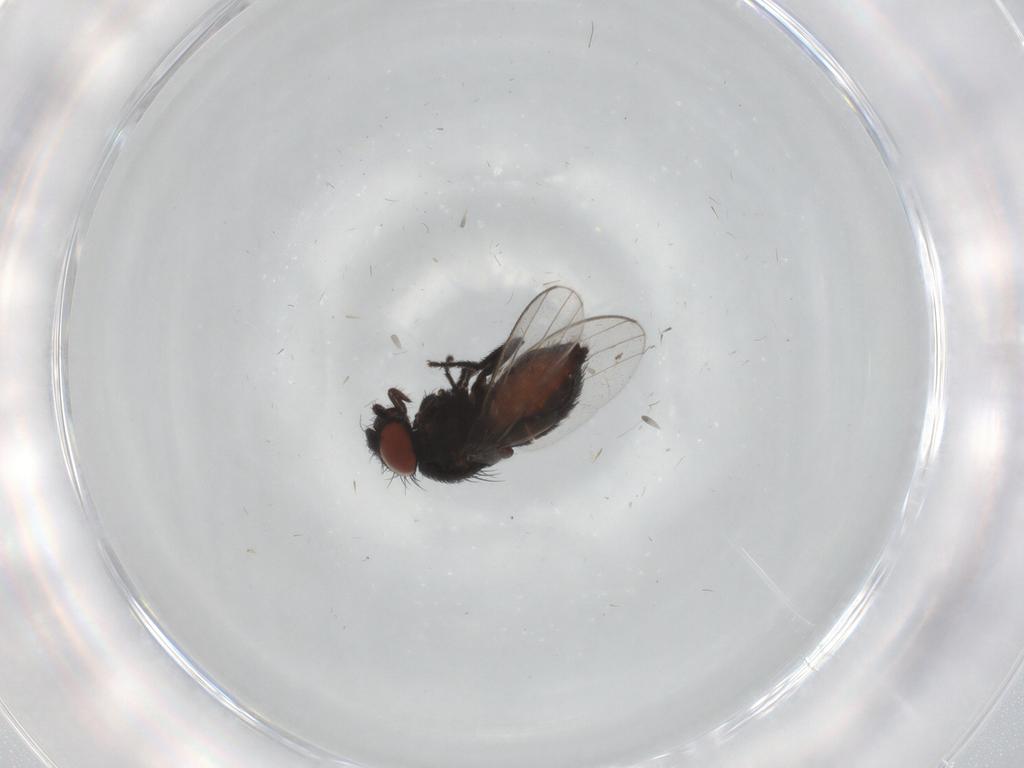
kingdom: Animalia
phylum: Arthropoda
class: Insecta
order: Diptera
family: Milichiidae
